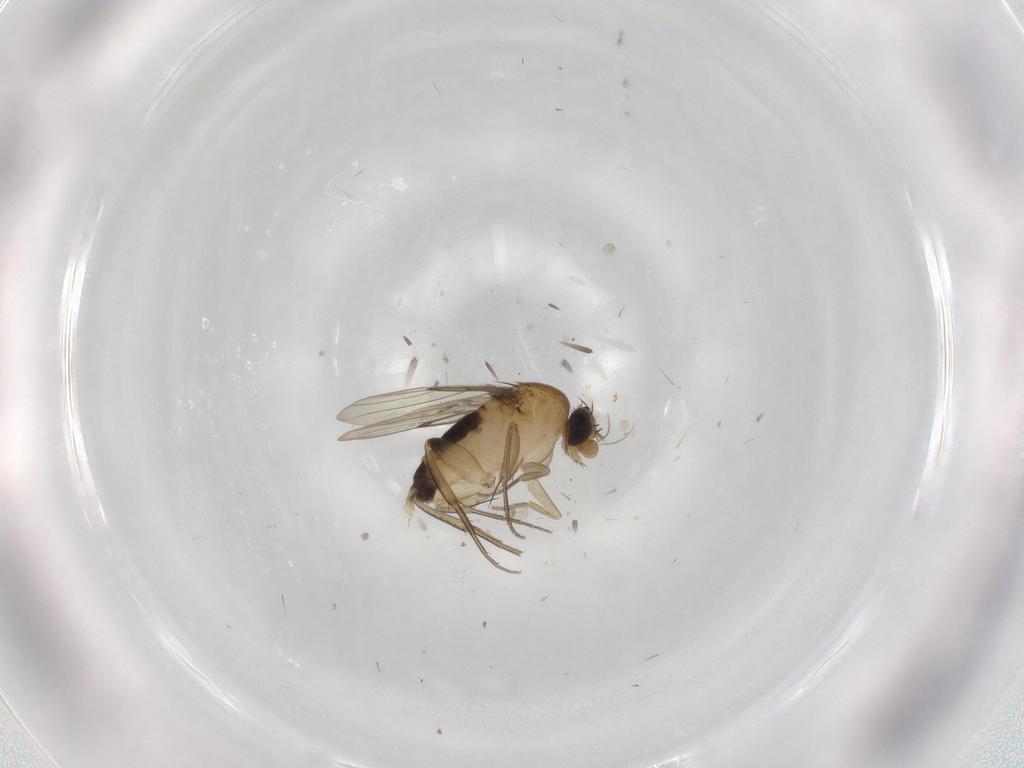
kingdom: Animalia
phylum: Arthropoda
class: Insecta
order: Diptera
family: Phoridae
